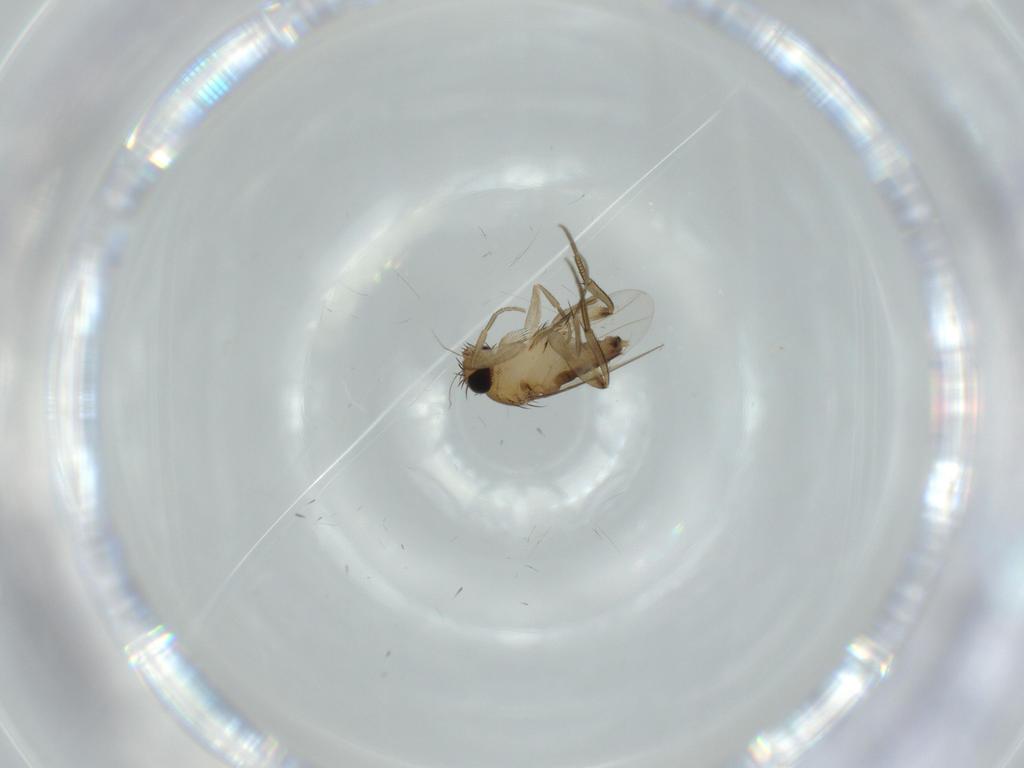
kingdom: Animalia
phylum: Arthropoda
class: Insecta
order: Diptera
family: Phoridae
